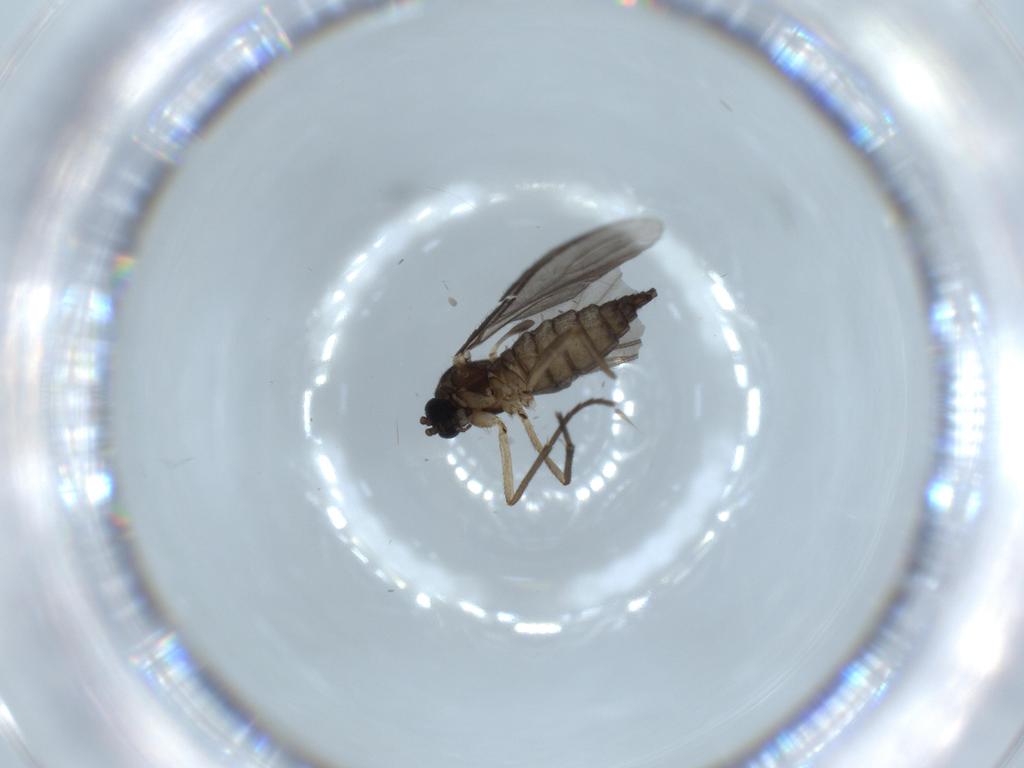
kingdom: Animalia
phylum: Arthropoda
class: Insecta
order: Diptera
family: Sciaridae
